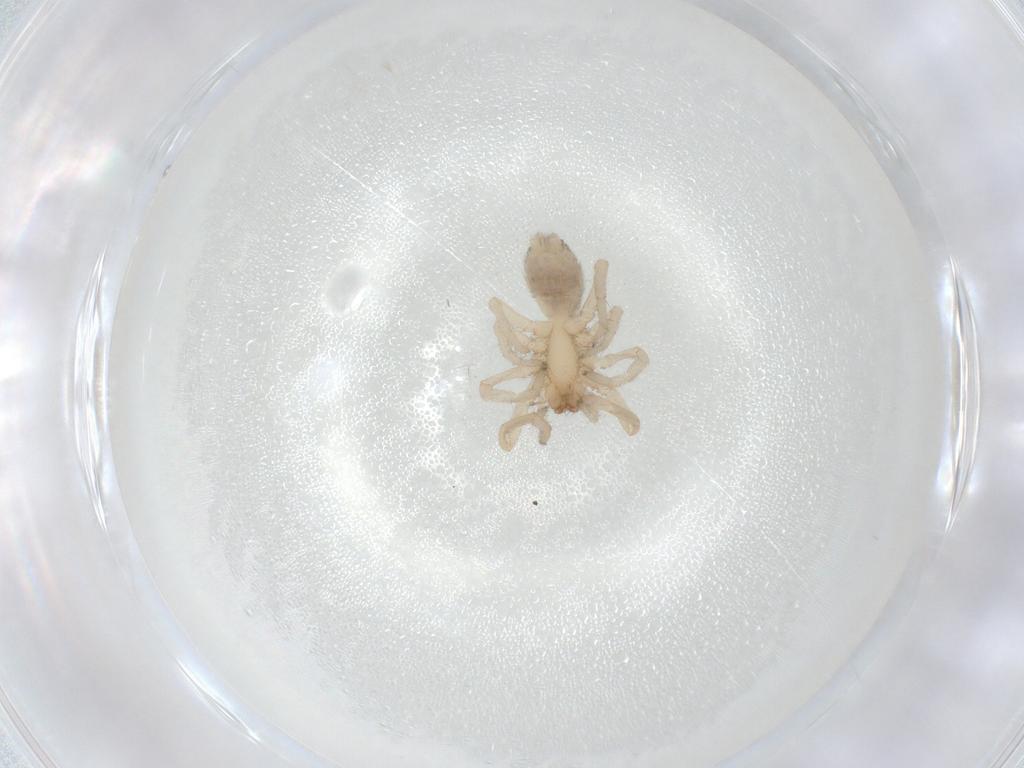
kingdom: Animalia
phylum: Arthropoda
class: Arachnida
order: Araneae
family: Gnaphosidae
